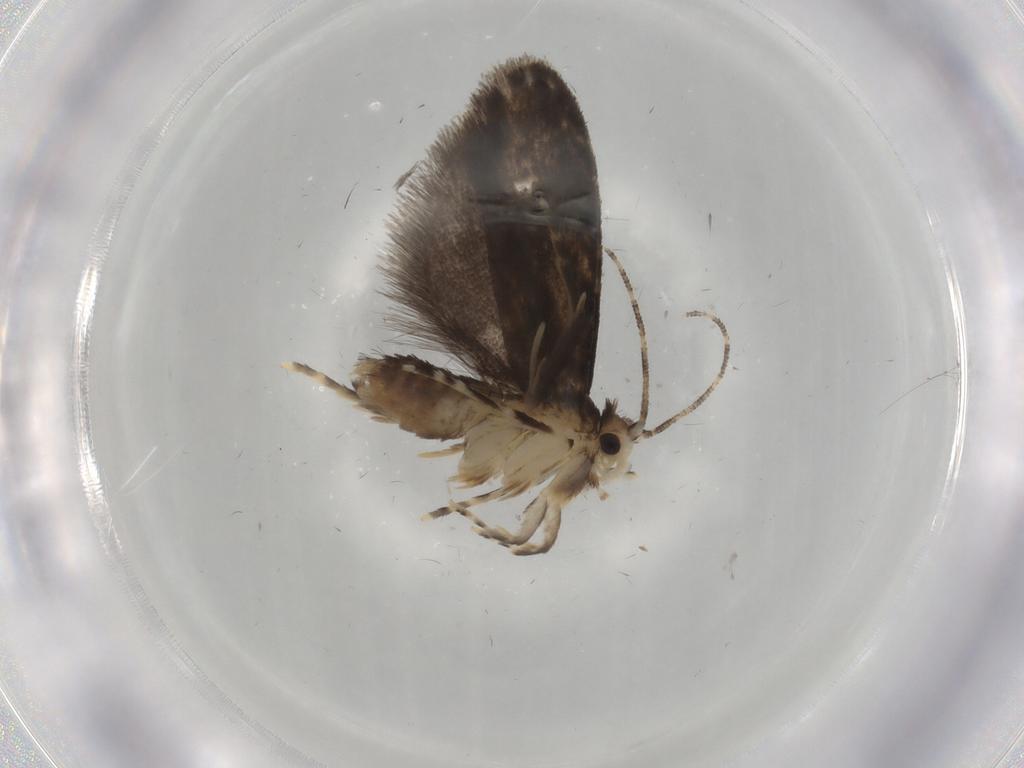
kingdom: Animalia
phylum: Arthropoda
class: Insecta
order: Lepidoptera
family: Tineidae
